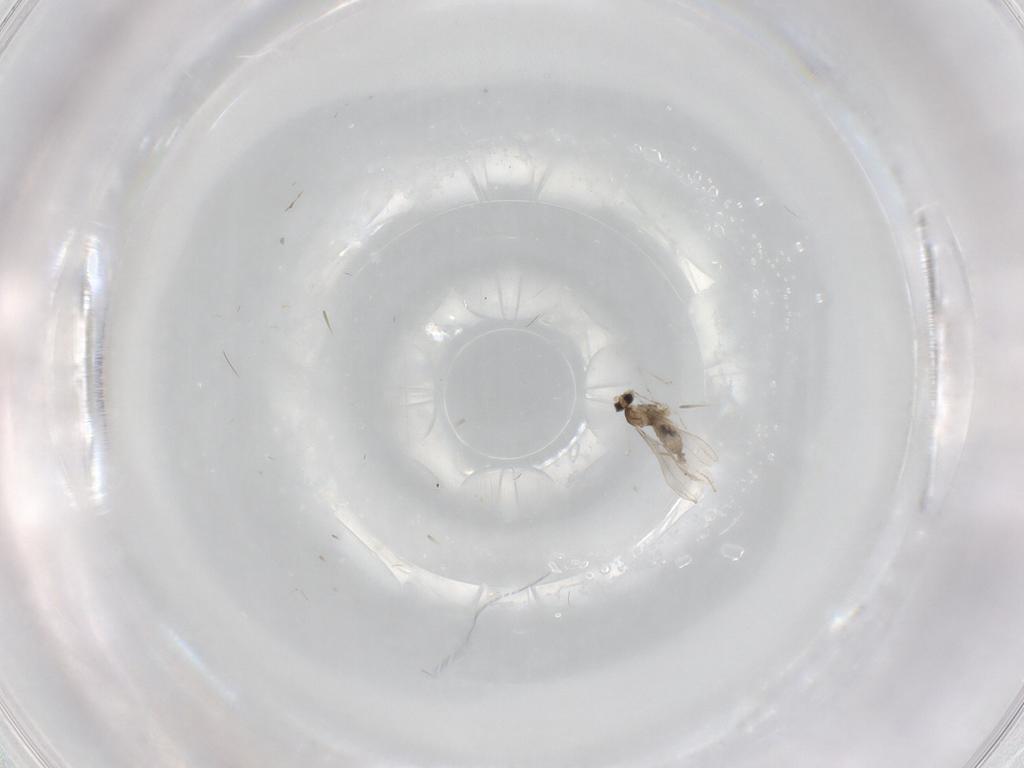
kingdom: Animalia
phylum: Arthropoda
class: Insecta
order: Diptera
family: Cecidomyiidae
